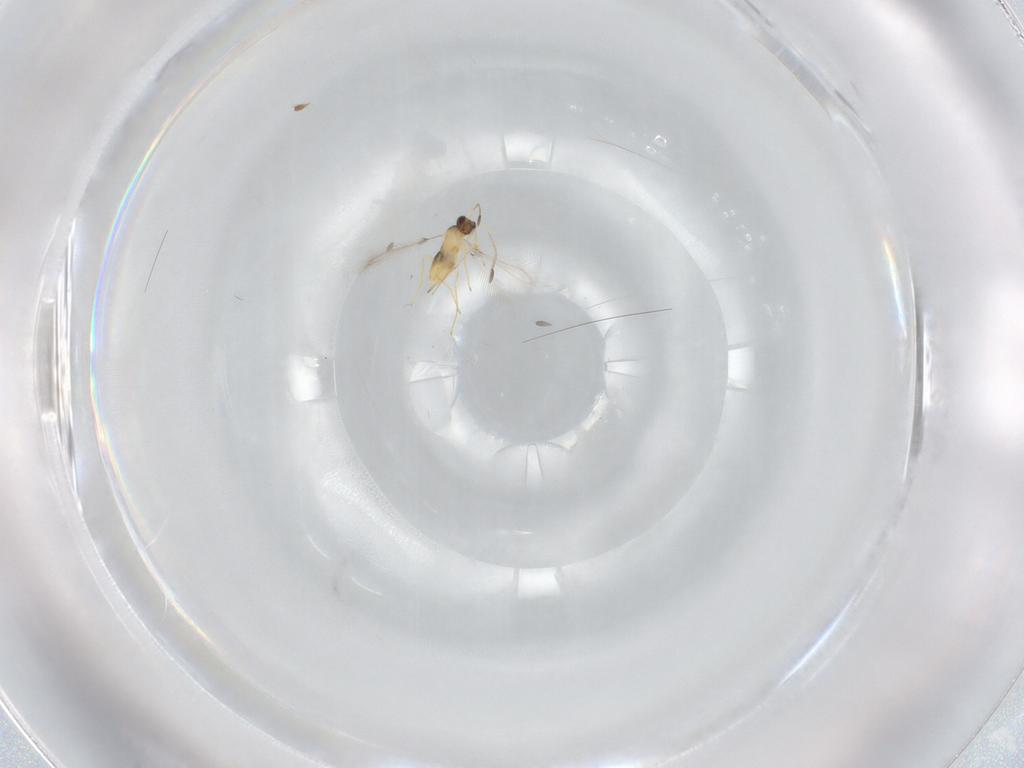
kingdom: Animalia
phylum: Arthropoda
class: Insecta
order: Hymenoptera
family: Mymaridae
